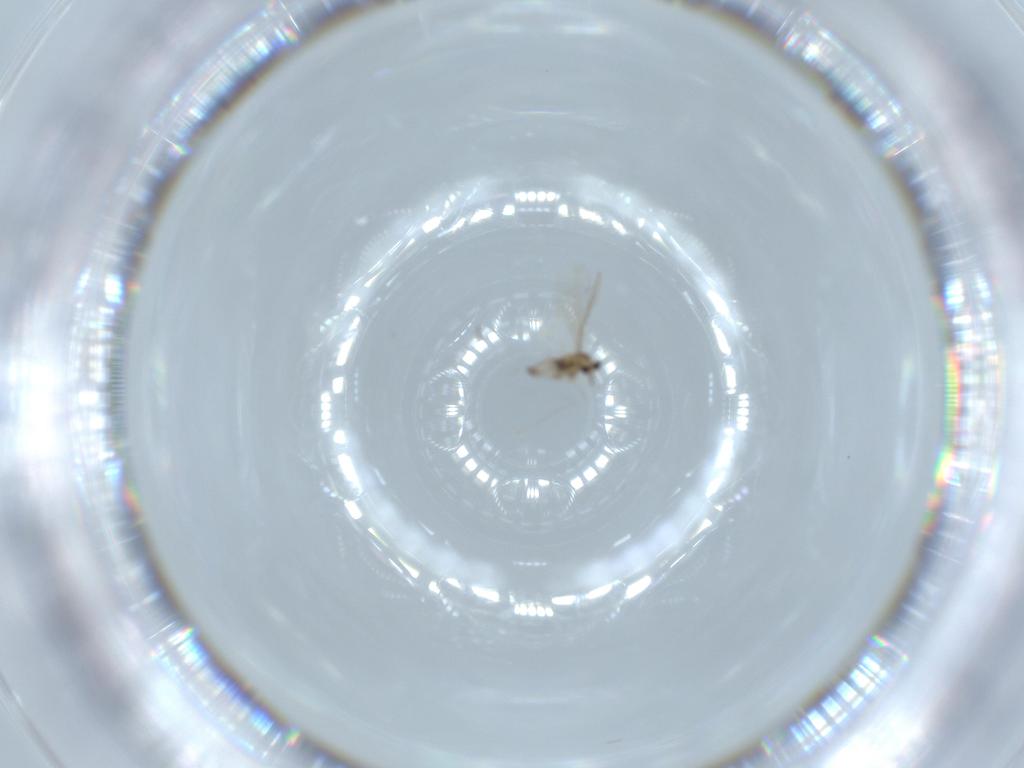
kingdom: Animalia
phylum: Arthropoda
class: Insecta
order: Diptera
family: Cecidomyiidae
